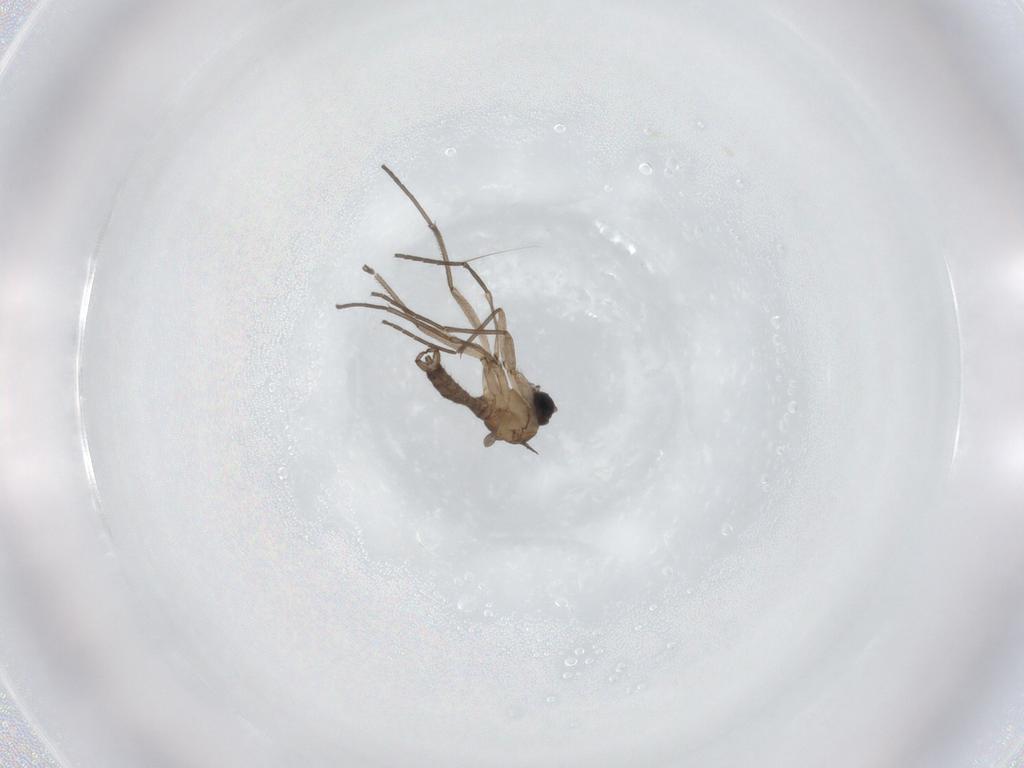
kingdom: Animalia
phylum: Arthropoda
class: Insecta
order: Diptera
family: Sciaridae
